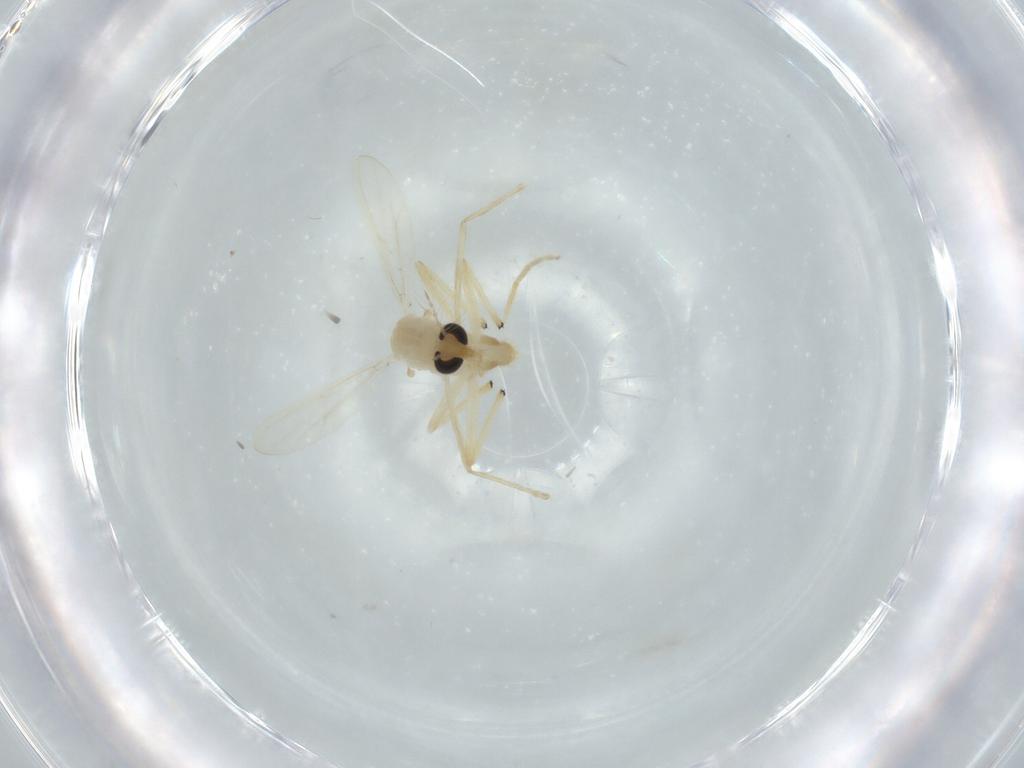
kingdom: Animalia
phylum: Arthropoda
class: Insecta
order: Diptera
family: Chironomidae
